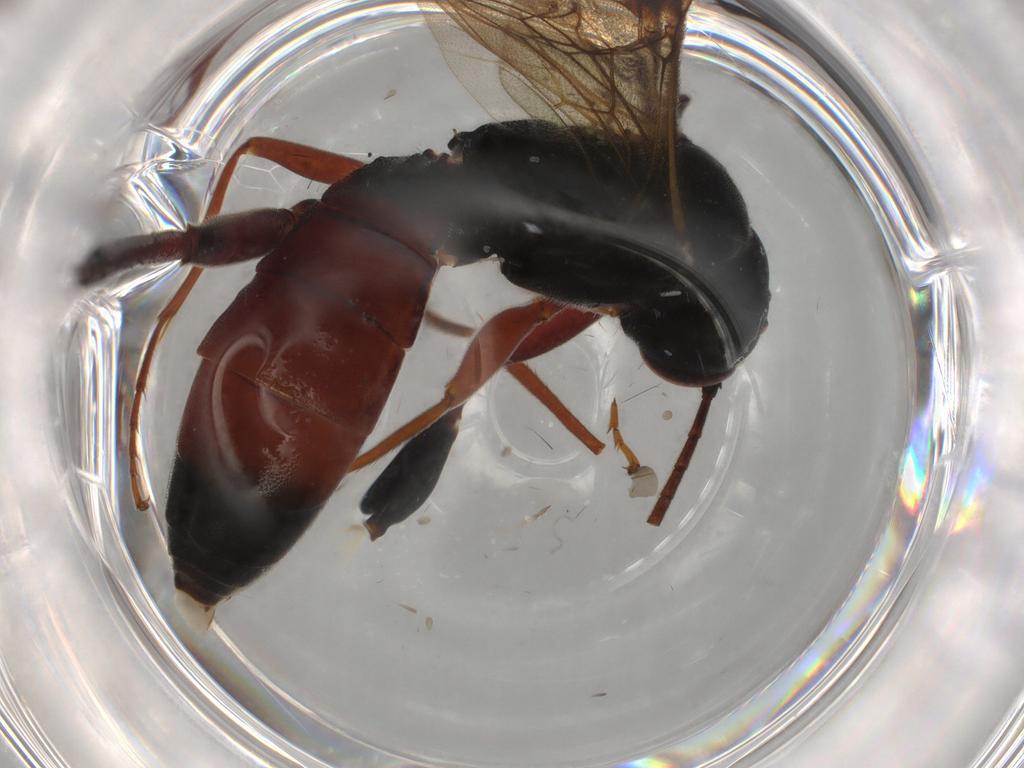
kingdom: Animalia
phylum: Arthropoda
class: Insecta
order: Hymenoptera
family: Ichneumonidae
